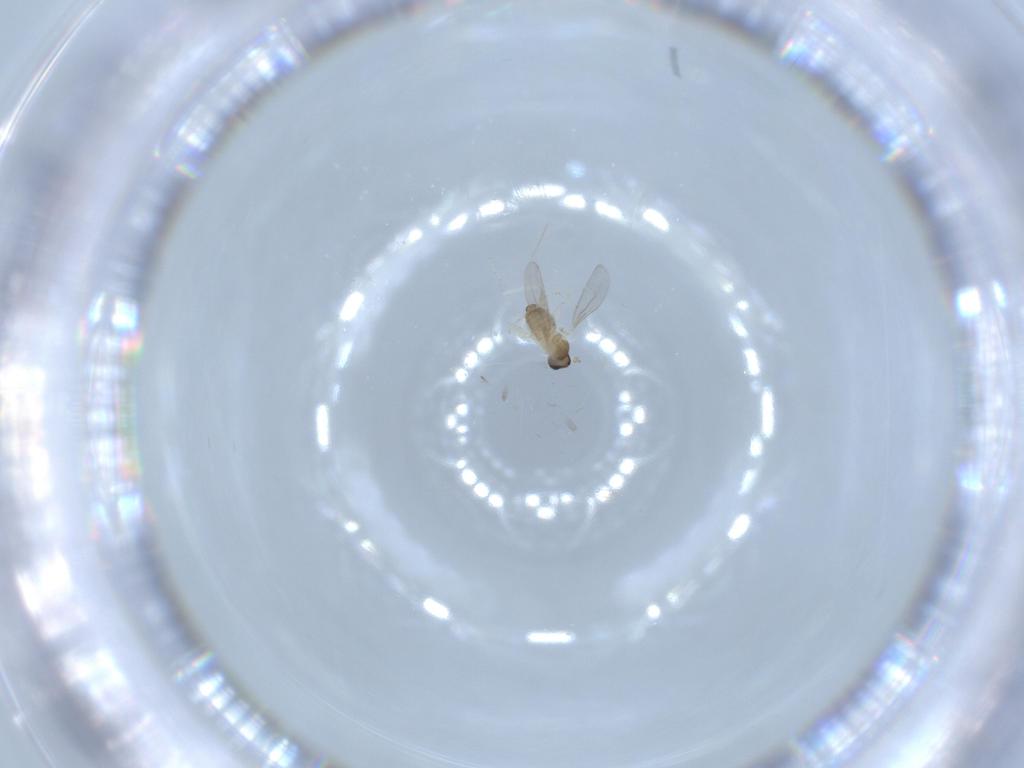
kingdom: Animalia
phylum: Arthropoda
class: Insecta
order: Diptera
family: Cecidomyiidae
